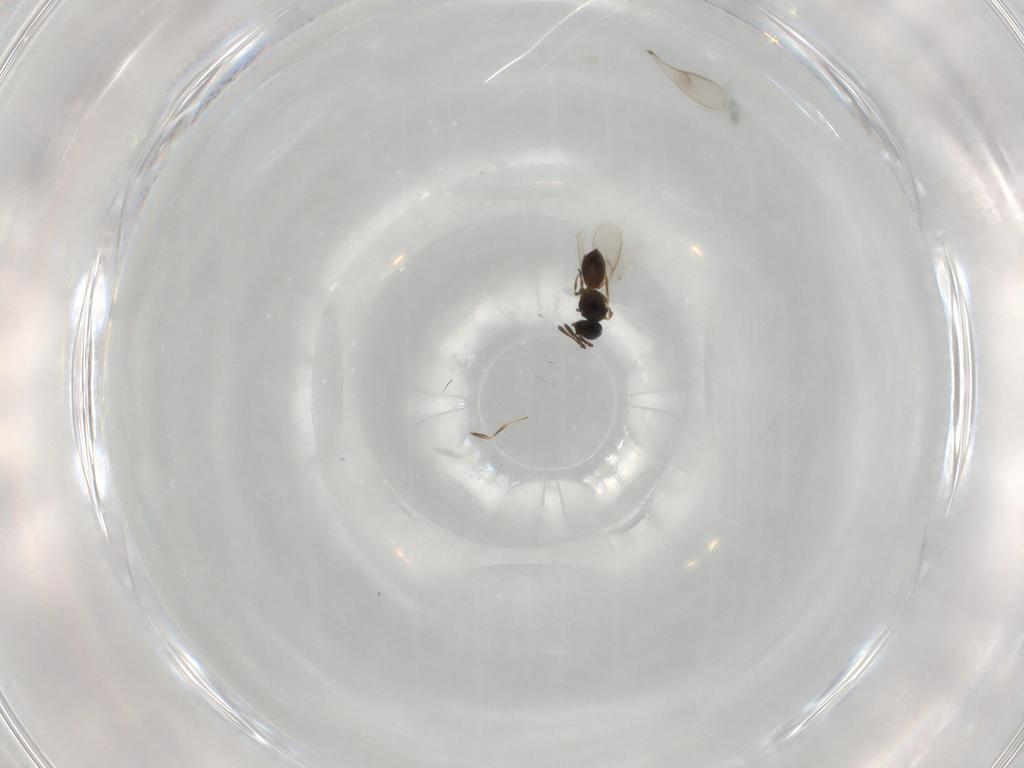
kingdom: Animalia
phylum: Arthropoda
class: Insecta
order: Hymenoptera
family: Scelionidae
